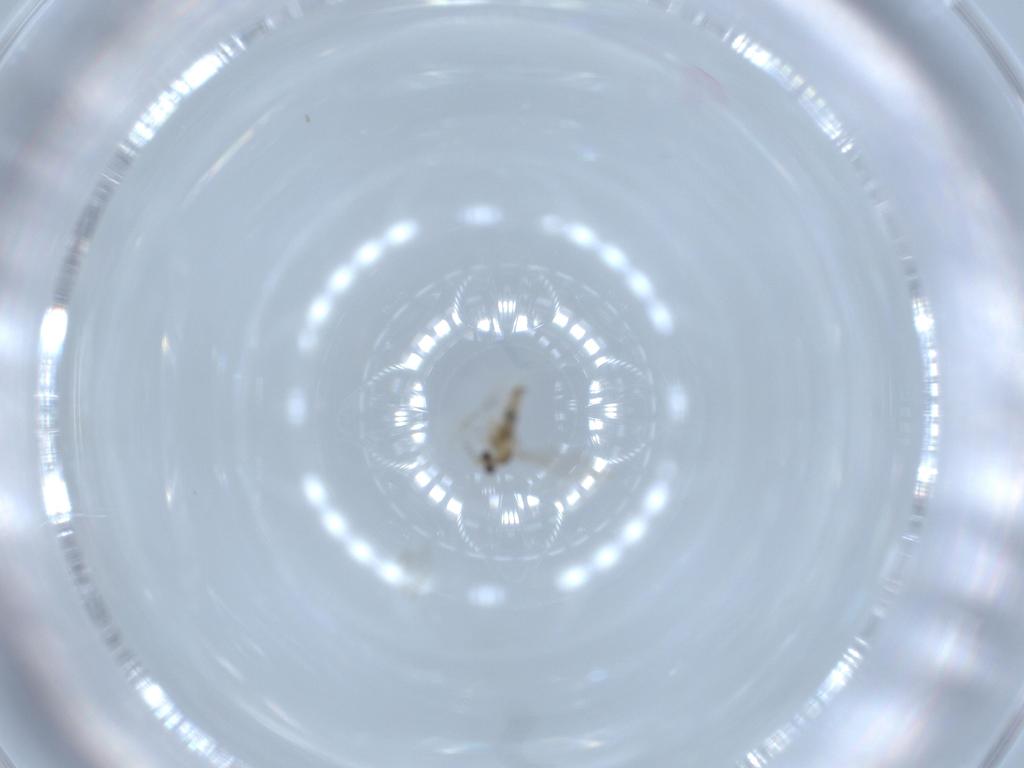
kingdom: Animalia
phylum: Arthropoda
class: Insecta
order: Diptera
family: Cecidomyiidae
